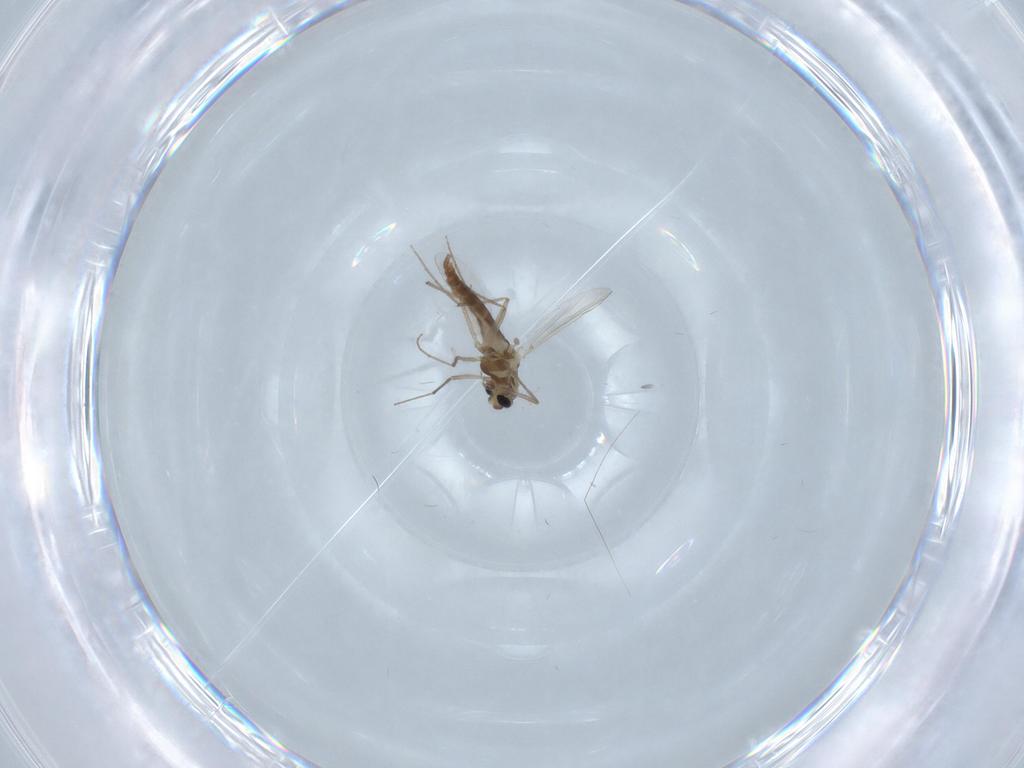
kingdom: Animalia
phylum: Arthropoda
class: Insecta
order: Diptera
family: Chironomidae
